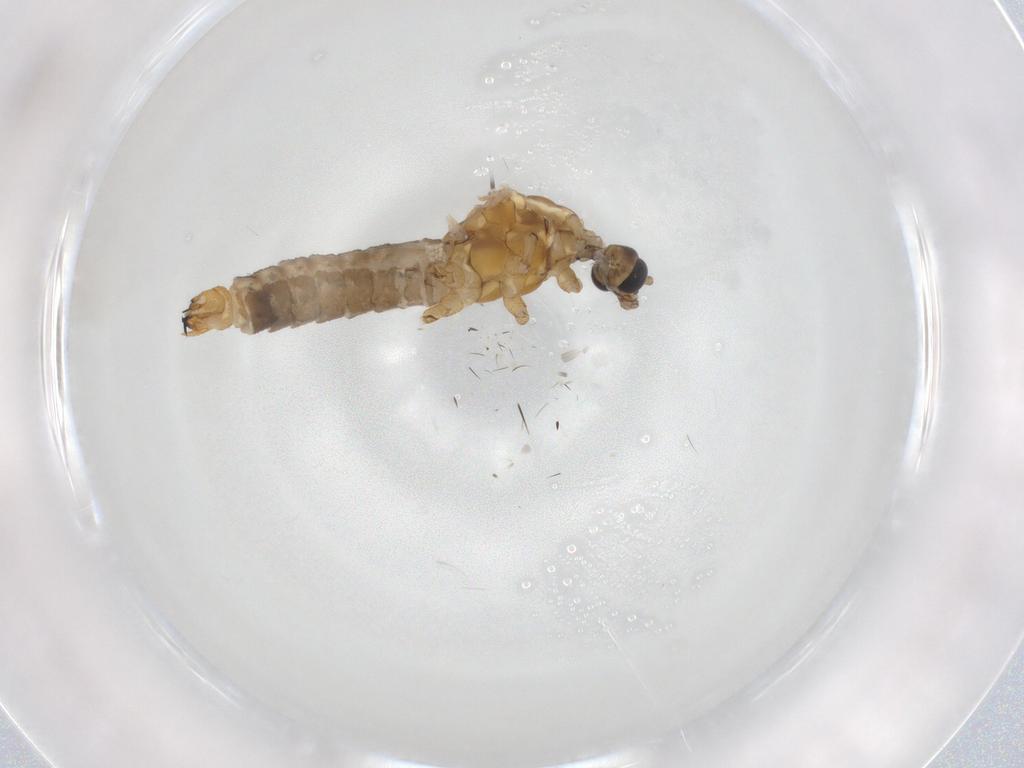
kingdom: Animalia
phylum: Arthropoda
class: Insecta
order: Diptera
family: Limoniidae
